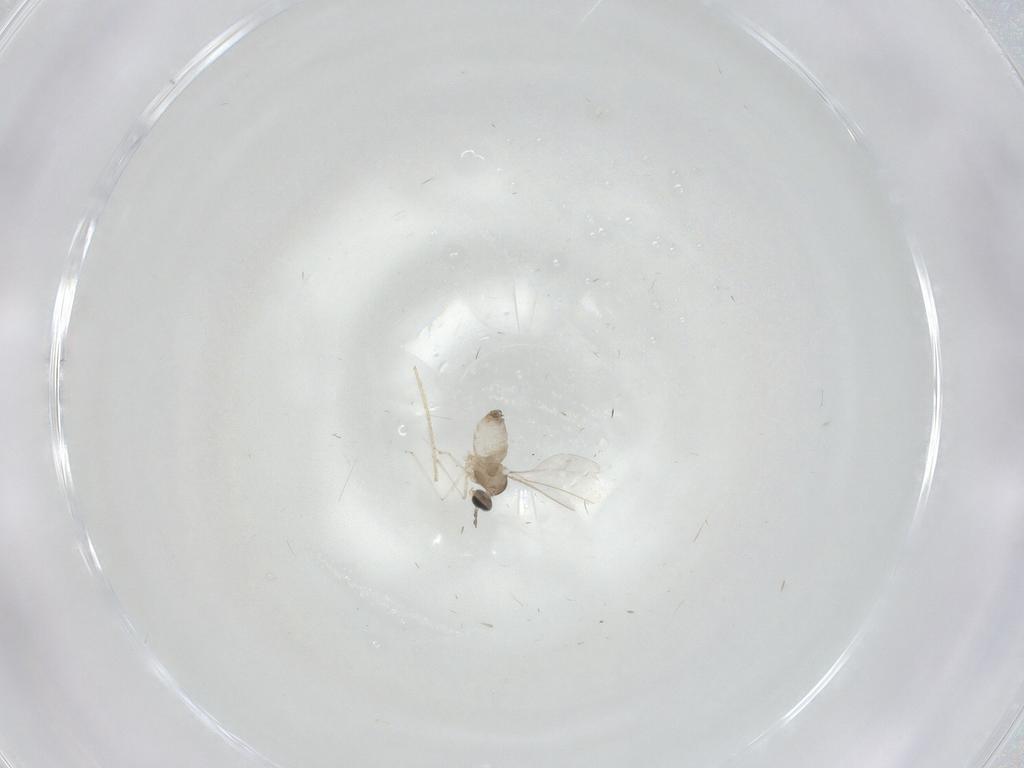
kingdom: Animalia
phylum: Arthropoda
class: Insecta
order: Diptera
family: Cecidomyiidae
